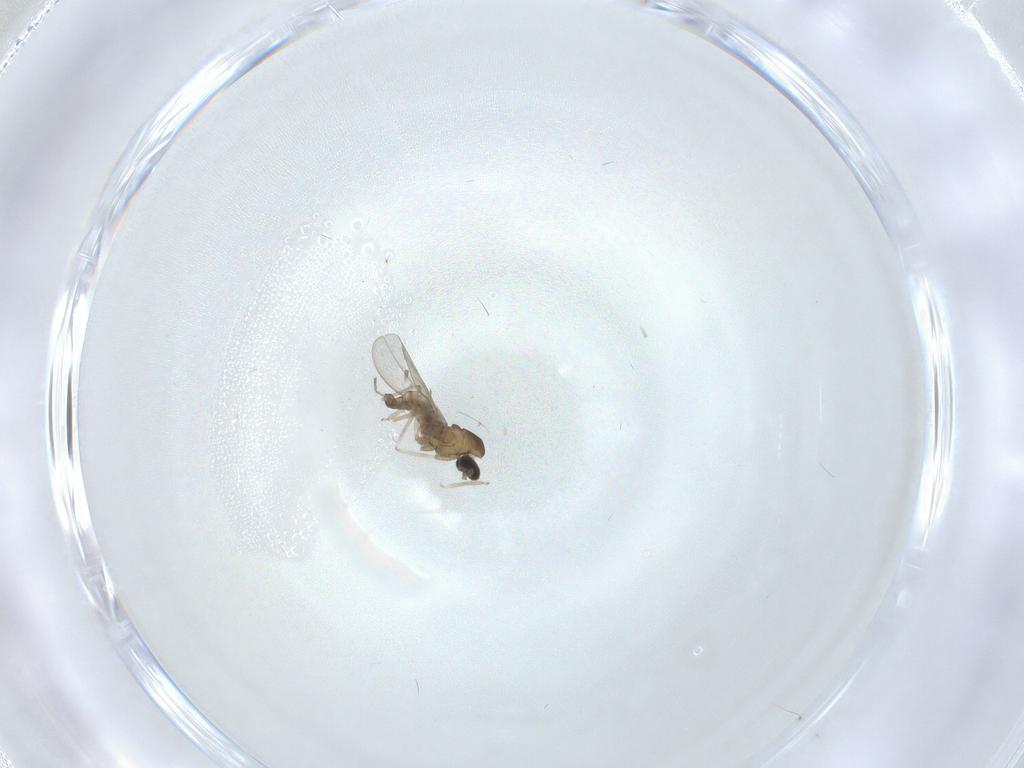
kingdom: Animalia
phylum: Arthropoda
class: Insecta
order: Diptera
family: Cecidomyiidae
